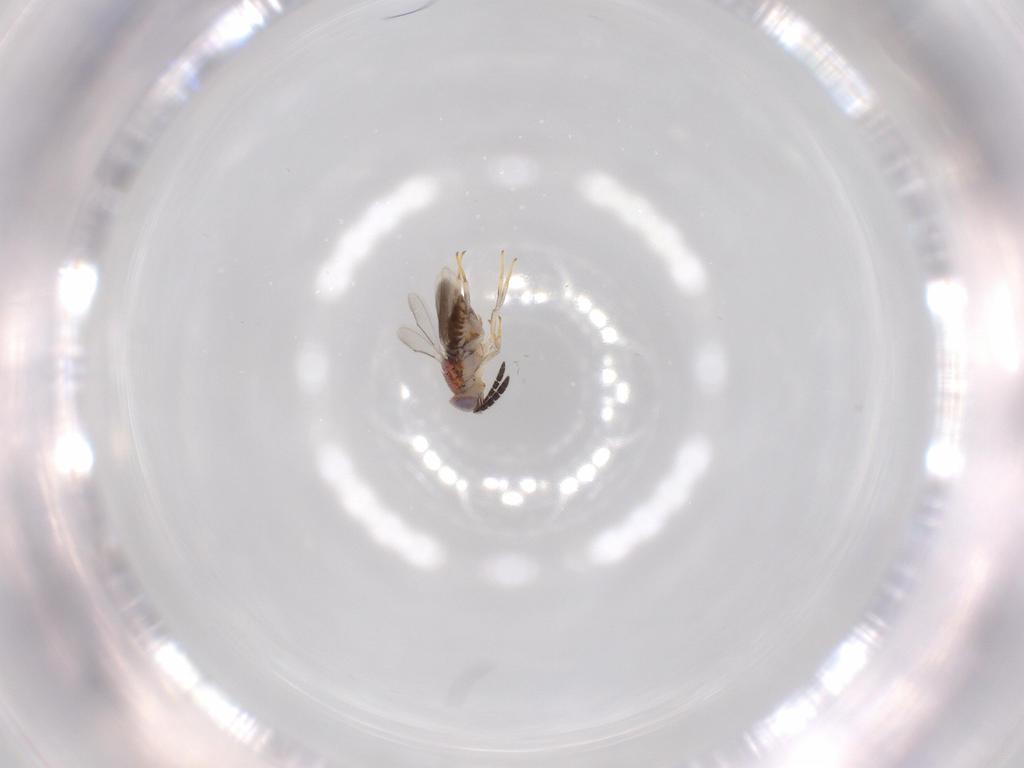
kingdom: Animalia
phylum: Arthropoda
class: Insecta
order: Hymenoptera
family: Aphelinidae
